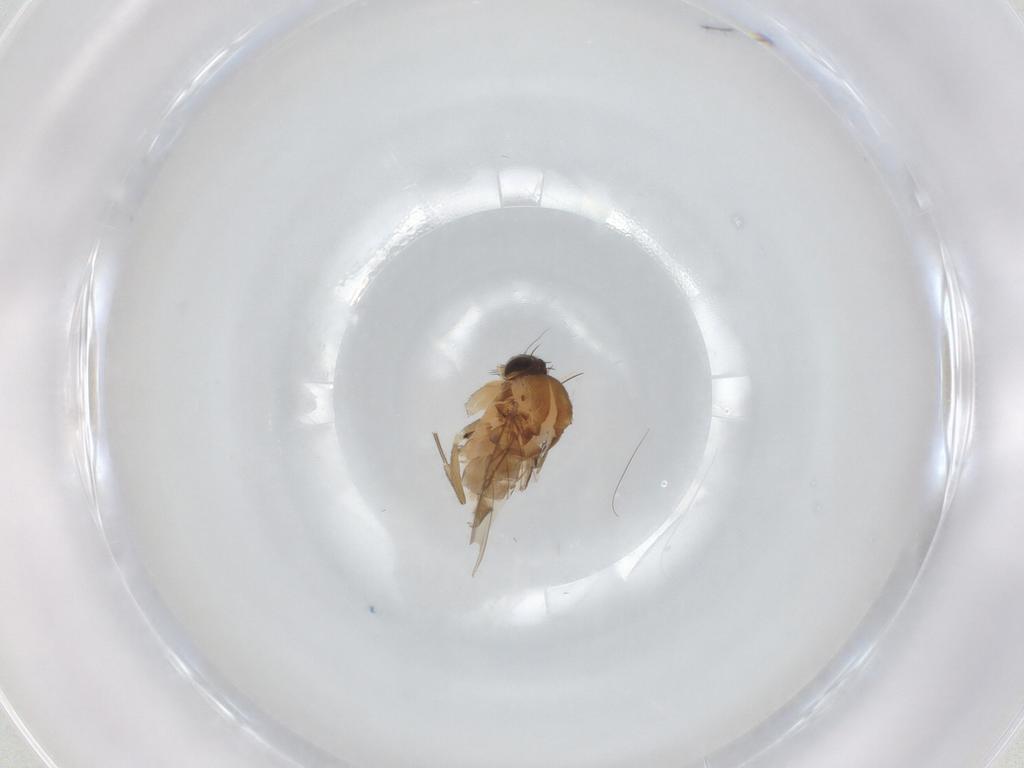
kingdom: Animalia
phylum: Arthropoda
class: Insecta
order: Diptera
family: Phoridae
